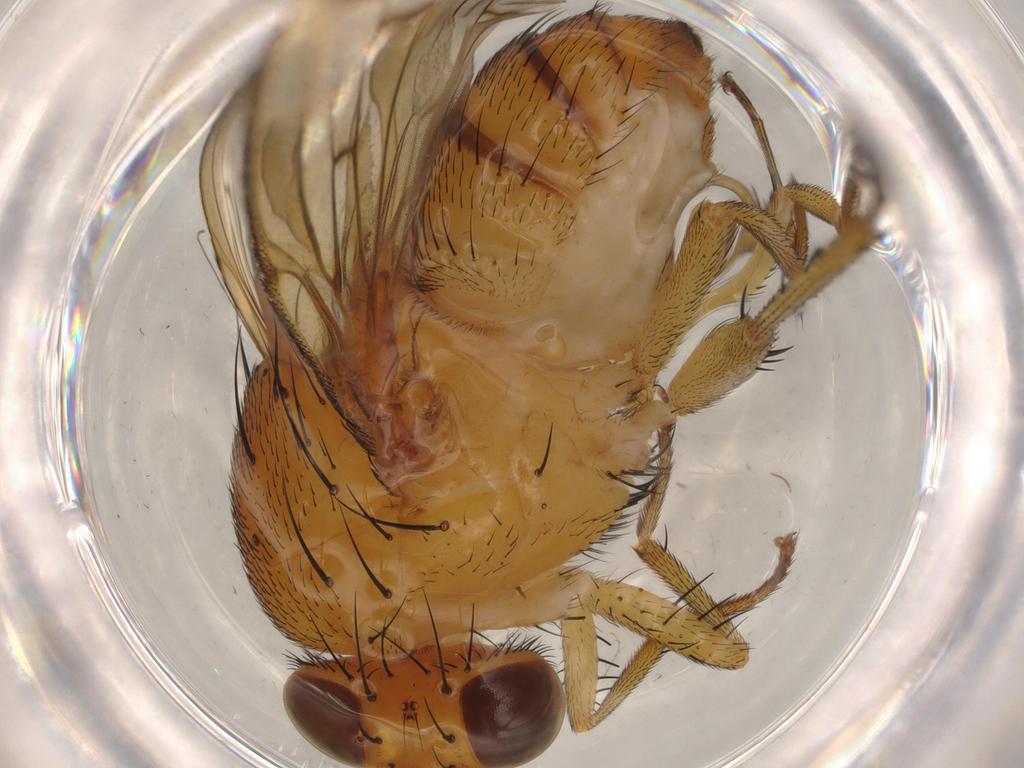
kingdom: Animalia
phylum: Arthropoda
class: Insecta
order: Diptera
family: Lauxaniidae
